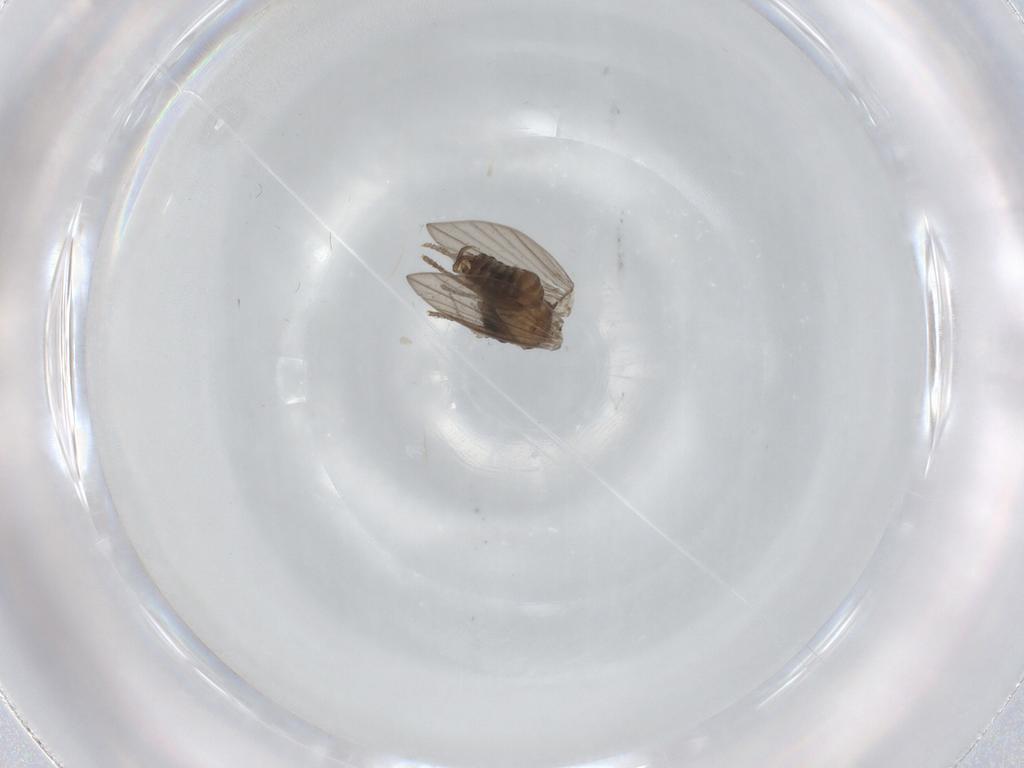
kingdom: Animalia
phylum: Arthropoda
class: Insecta
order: Diptera
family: Psychodidae
